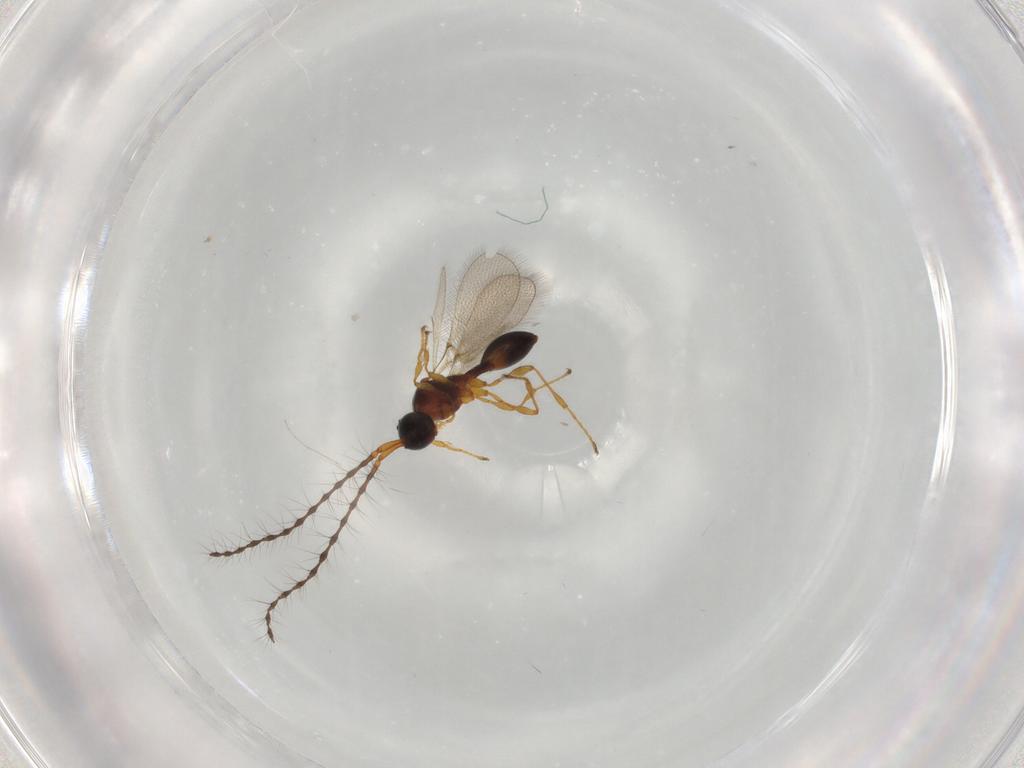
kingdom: Animalia
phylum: Arthropoda
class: Insecta
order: Hymenoptera
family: Diapriidae
